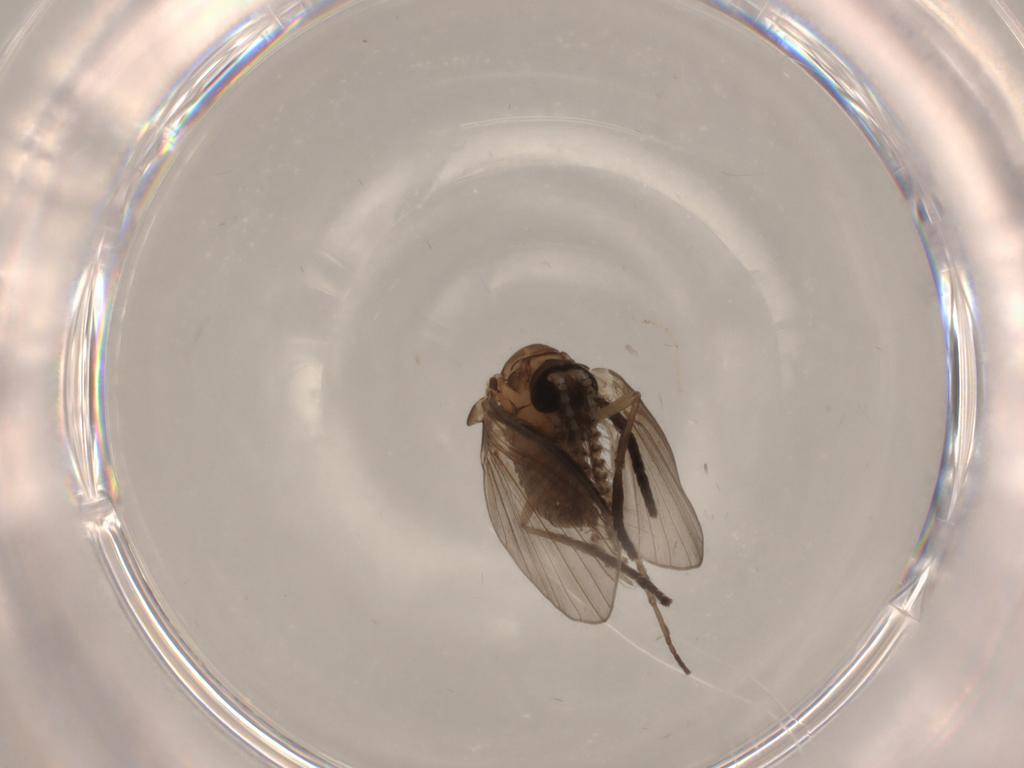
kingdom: Animalia
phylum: Arthropoda
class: Insecta
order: Diptera
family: Psychodidae
